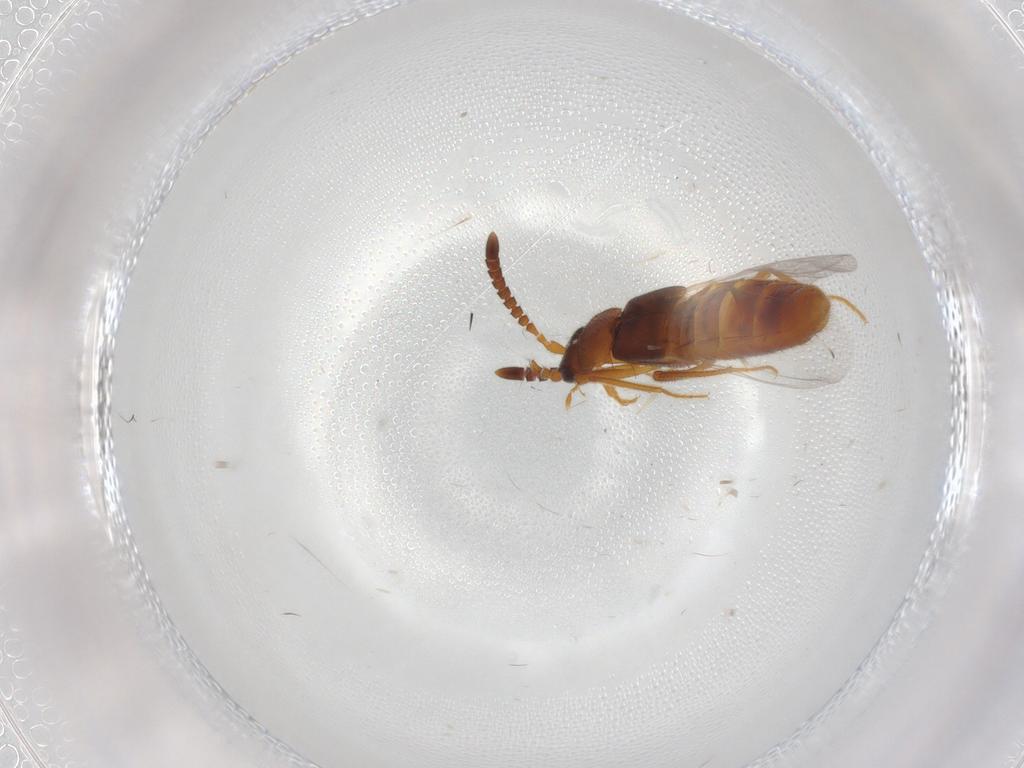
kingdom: Animalia
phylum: Arthropoda
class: Insecta
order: Coleoptera
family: Staphylinidae
